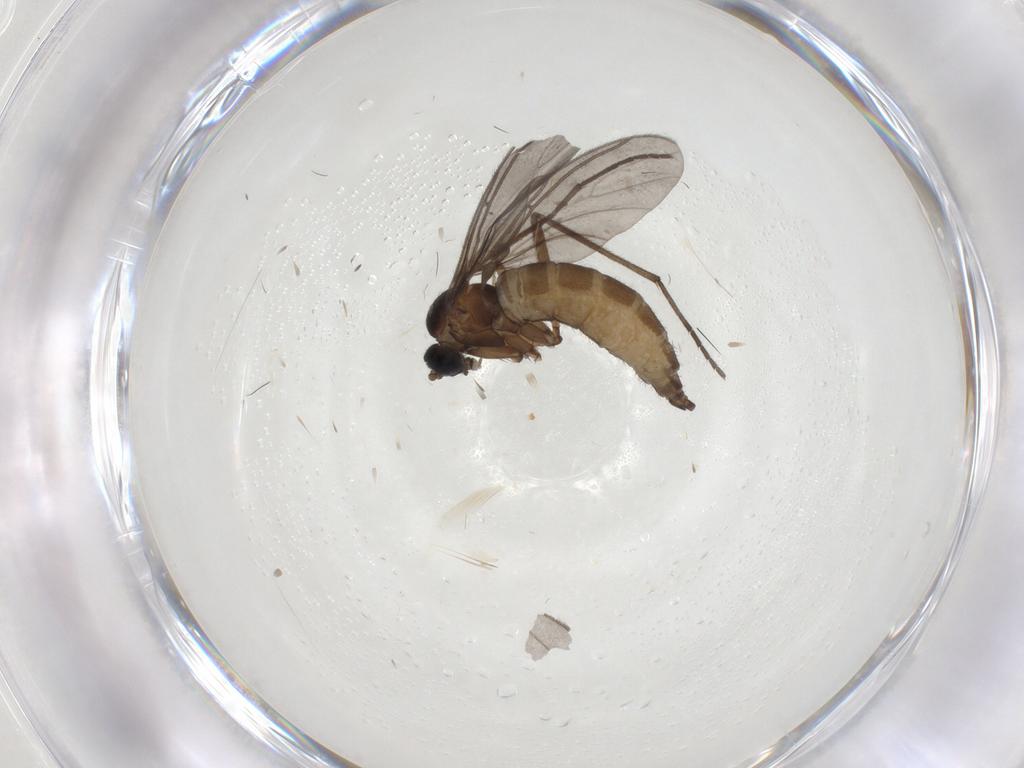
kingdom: Animalia
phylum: Arthropoda
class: Insecta
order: Diptera
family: Sciaridae
